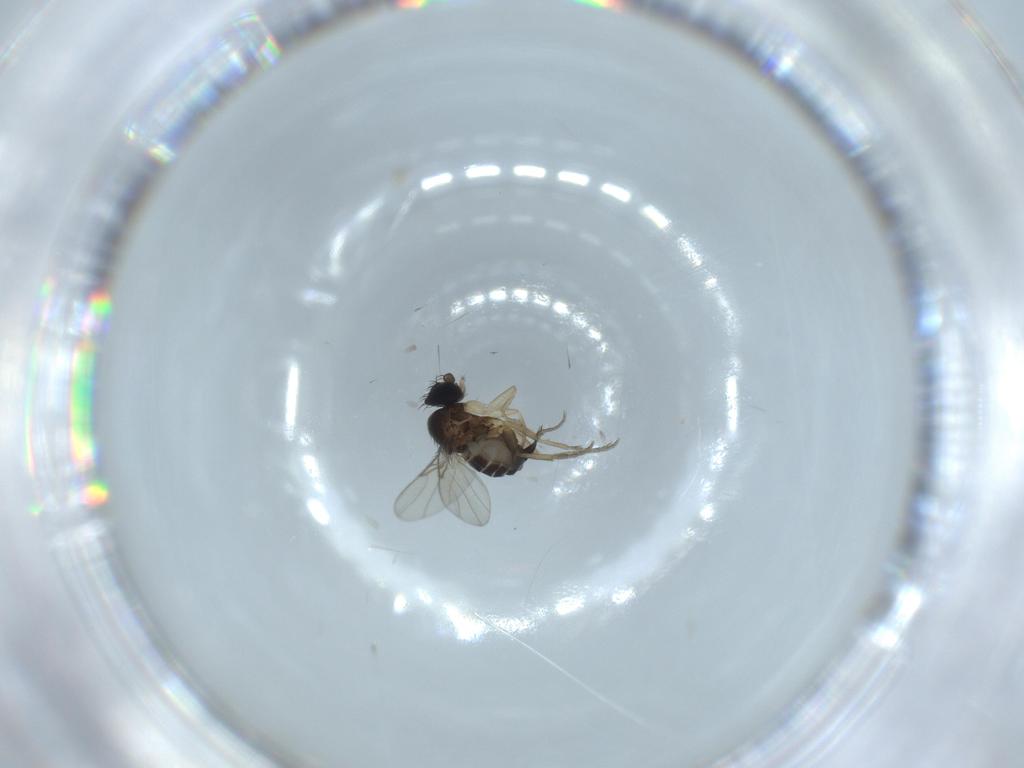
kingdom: Animalia
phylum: Arthropoda
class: Insecta
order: Diptera
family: Phoridae
